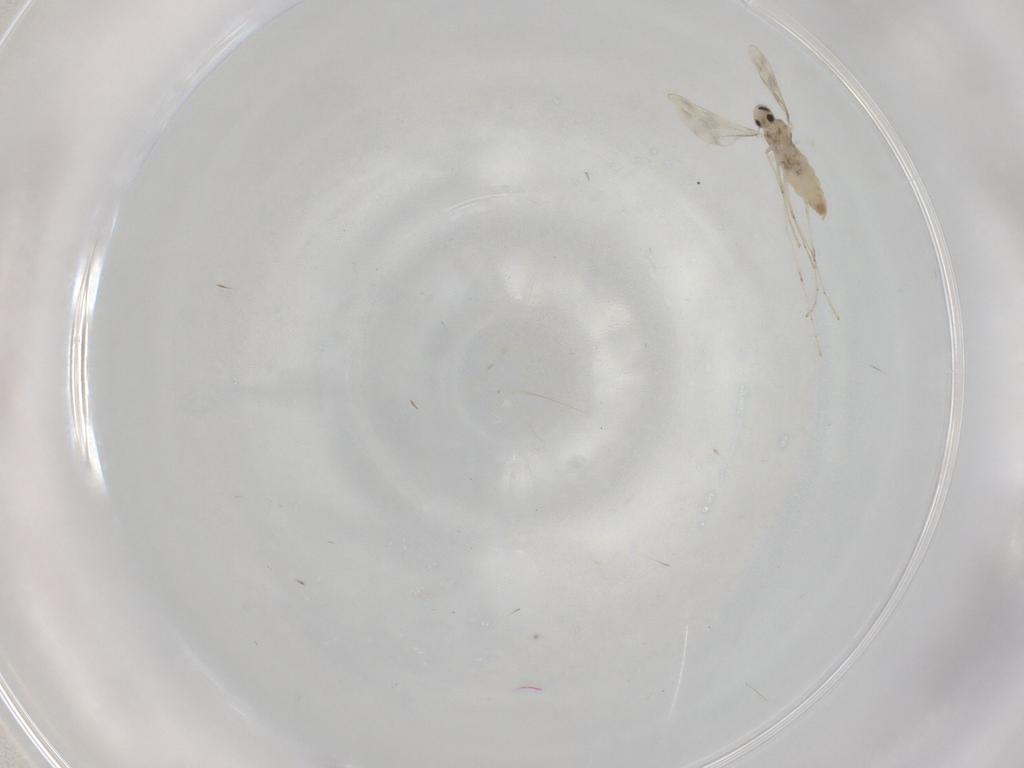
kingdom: Animalia
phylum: Arthropoda
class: Insecta
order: Diptera
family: Cecidomyiidae
